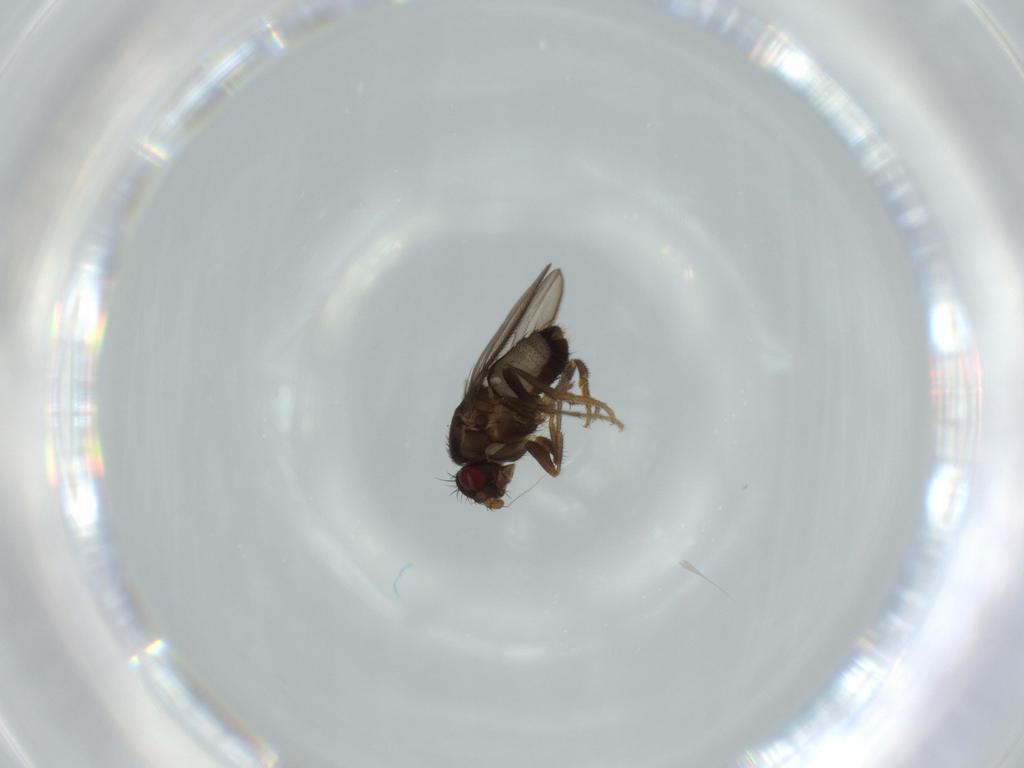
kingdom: Animalia
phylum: Arthropoda
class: Insecta
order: Diptera
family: Sphaeroceridae
